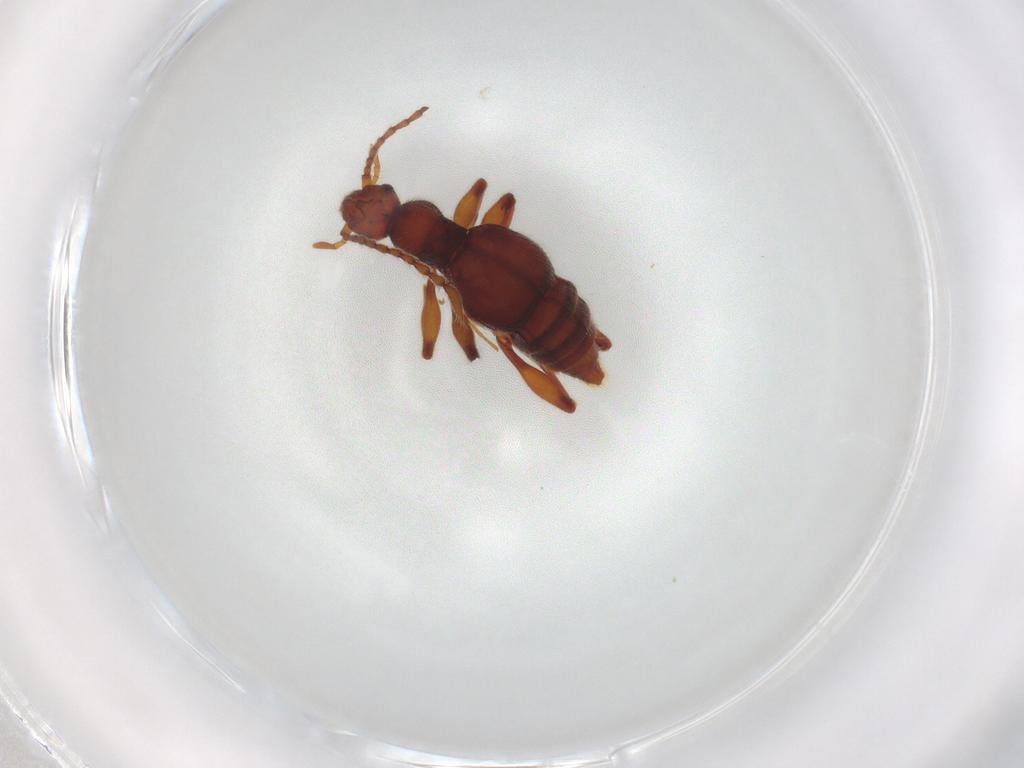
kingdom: Animalia
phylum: Arthropoda
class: Insecta
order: Coleoptera
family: Staphylinidae
